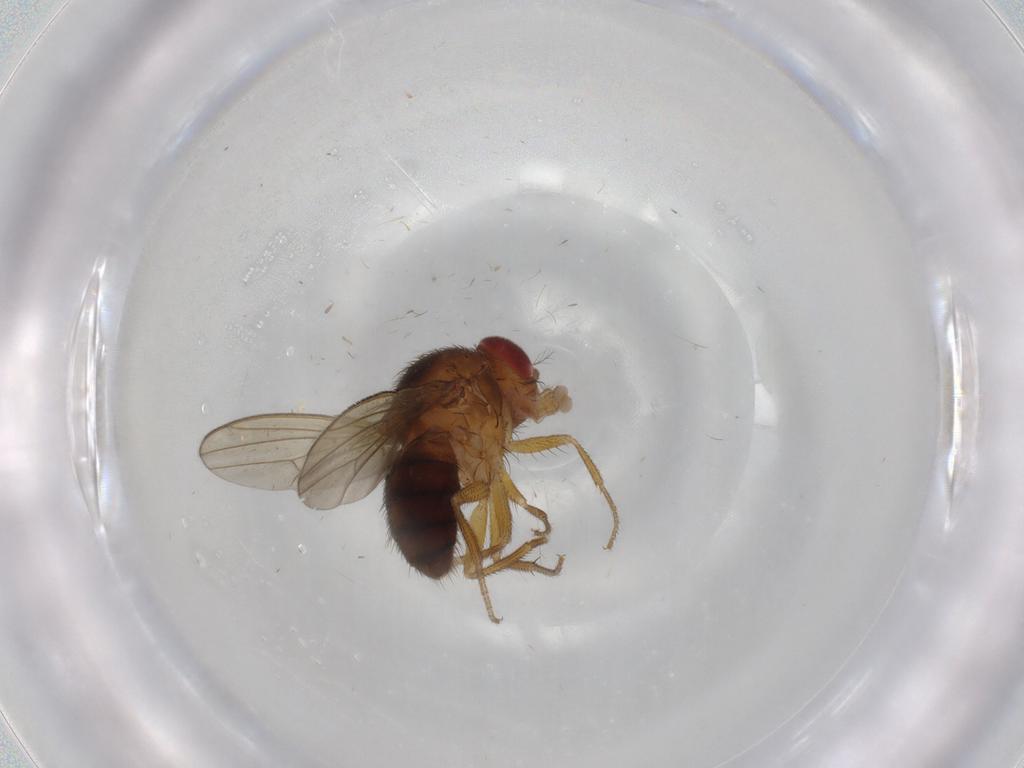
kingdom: Animalia
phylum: Arthropoda
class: Insecta
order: Diptera
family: Drosophilidae
